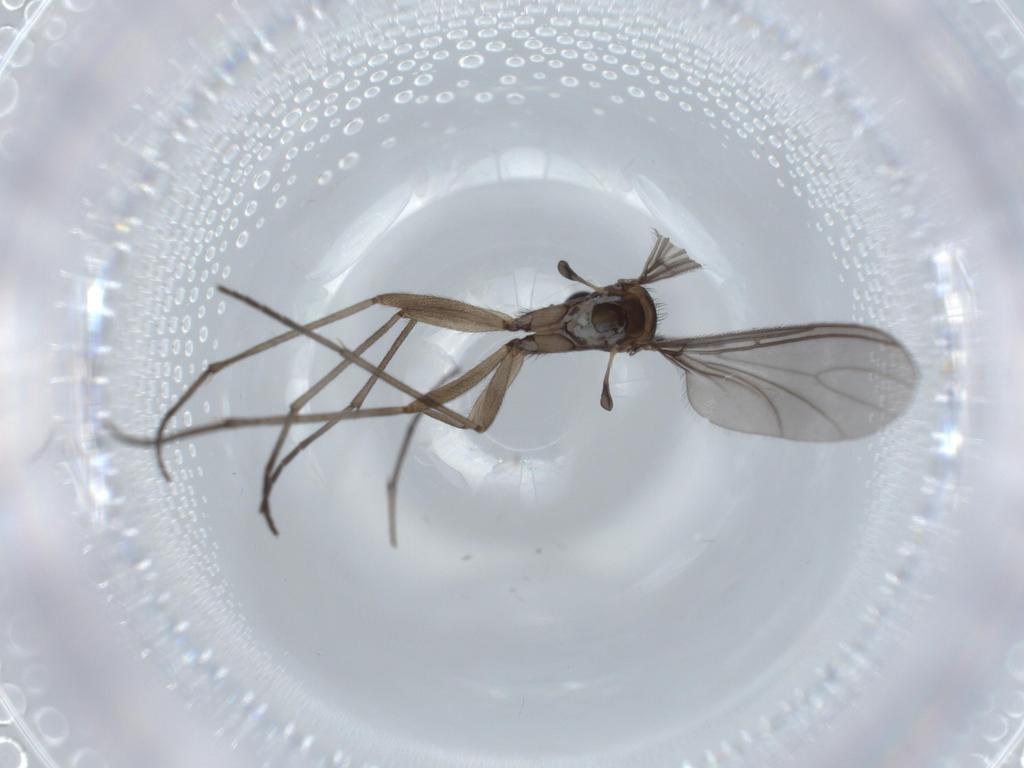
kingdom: Animalia
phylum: Arthropoda
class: Insecta
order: Diptera
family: Sciaridae
